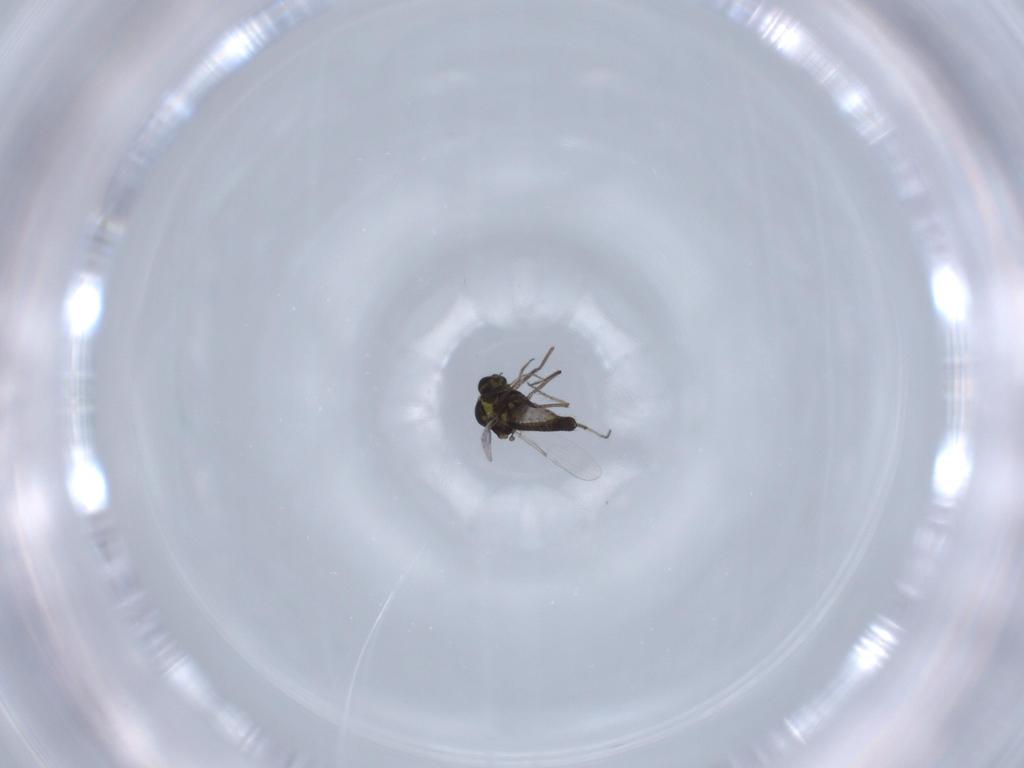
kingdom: Animalia
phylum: Arthropoda
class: Insecta
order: Diptera
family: Ceratopogonidae
